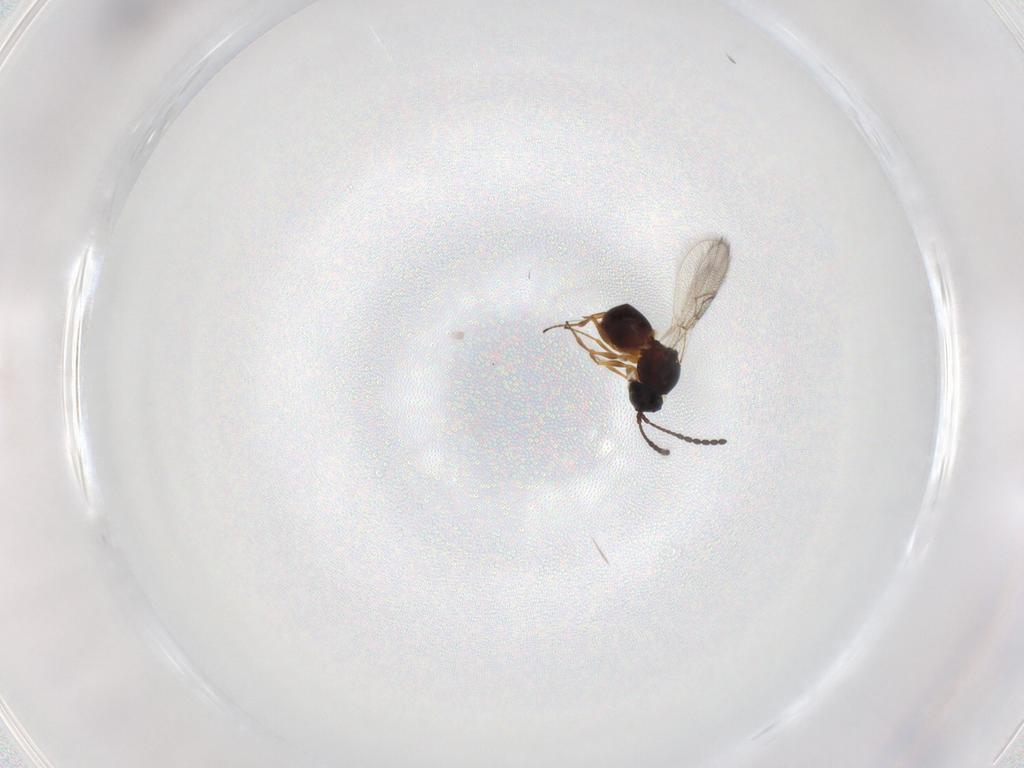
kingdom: Animalia
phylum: Arthropoda
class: Insecta
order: Hymenoptera
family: Figitidae
